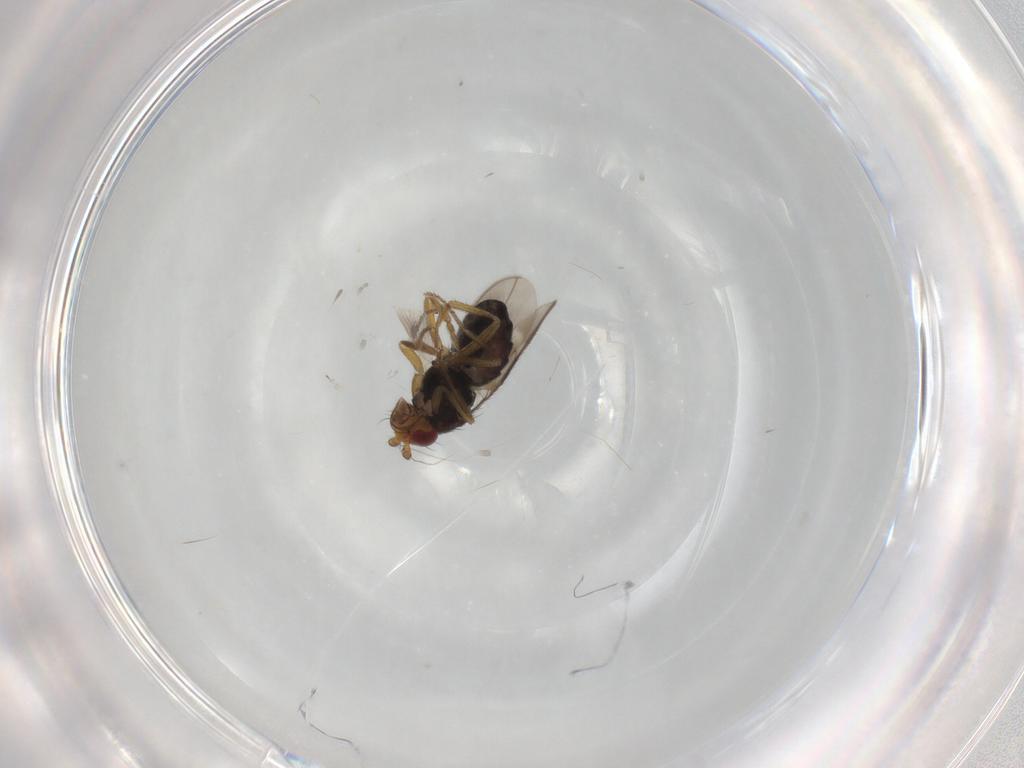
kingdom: Animalia
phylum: Arthropoda
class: Insecta
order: Diptera
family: Sphaeroceridae
